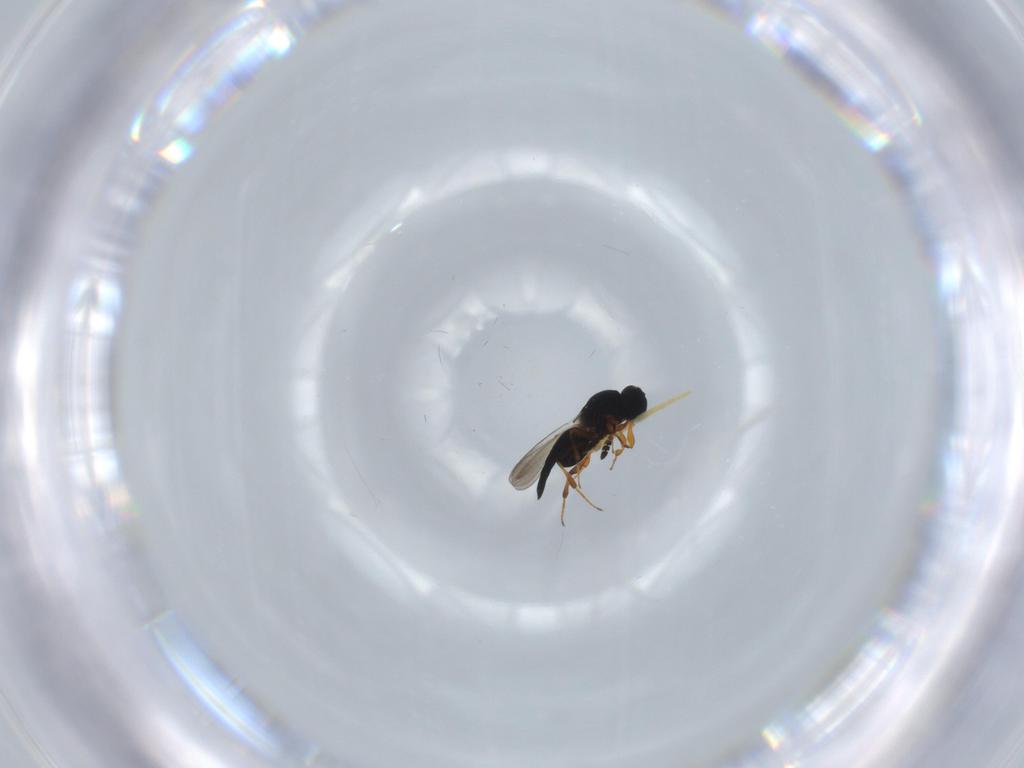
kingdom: Animalia
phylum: Arthropoda
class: Insecta
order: Hymenoptera
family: Platygastridae
